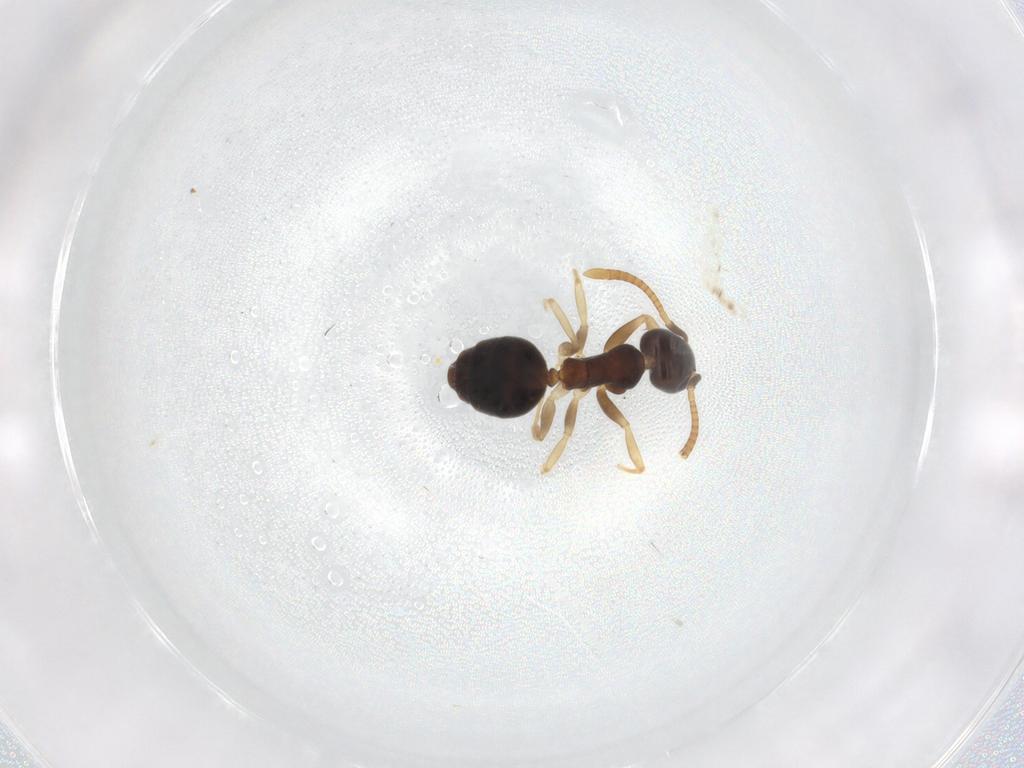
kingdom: Animalia
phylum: Arthropoda
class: Insecta
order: Hymenoptera
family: Formicidae
